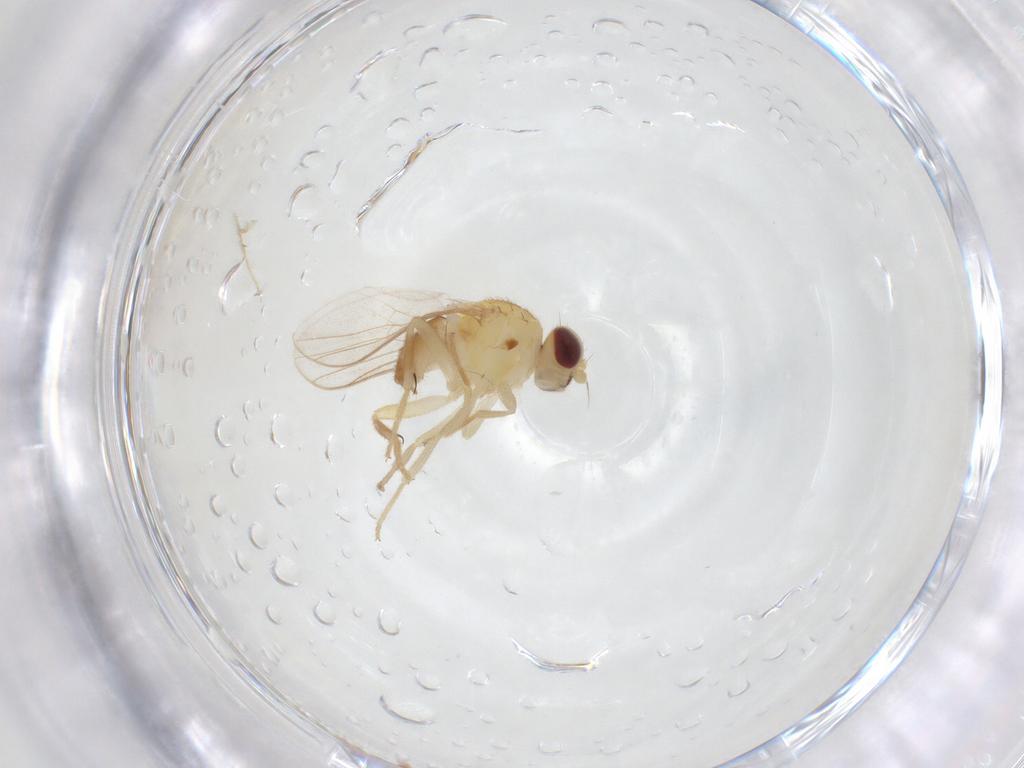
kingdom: Animalia
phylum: Arthropoda
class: Insecta
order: Diptera
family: Chloropidae
